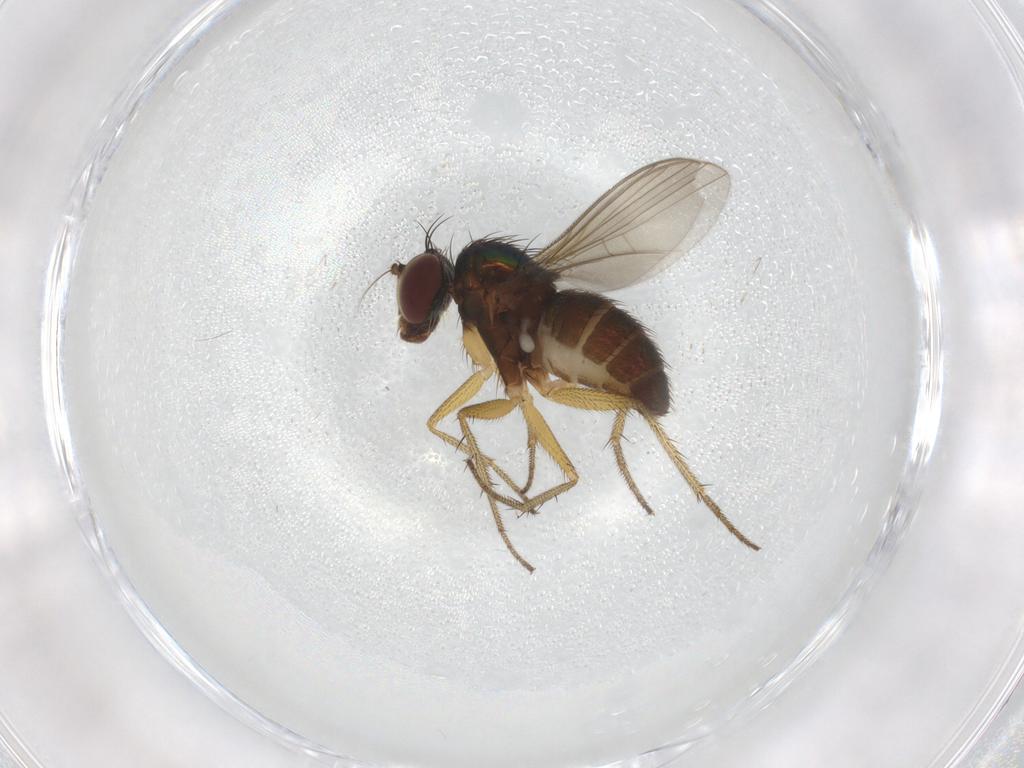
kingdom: Animalia
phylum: Arthropoda
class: Insecta
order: Diptera
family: Dolichopodidae
